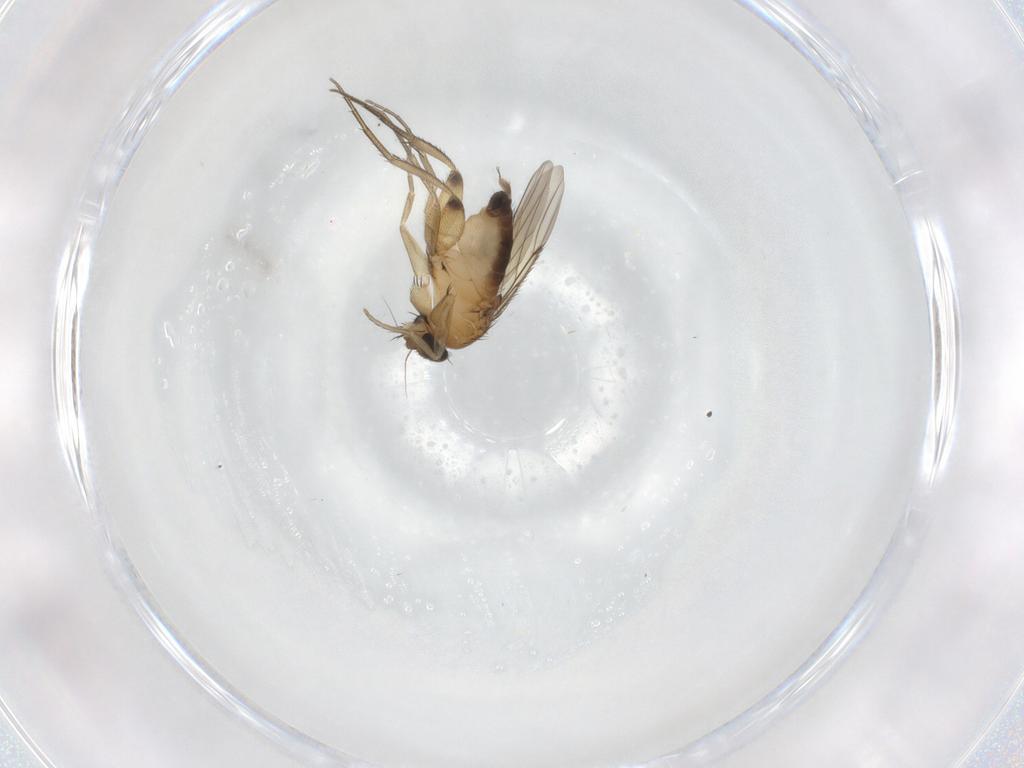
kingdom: Animalia
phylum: Arthropoda
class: Insecta
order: Diptera
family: Phoridae
